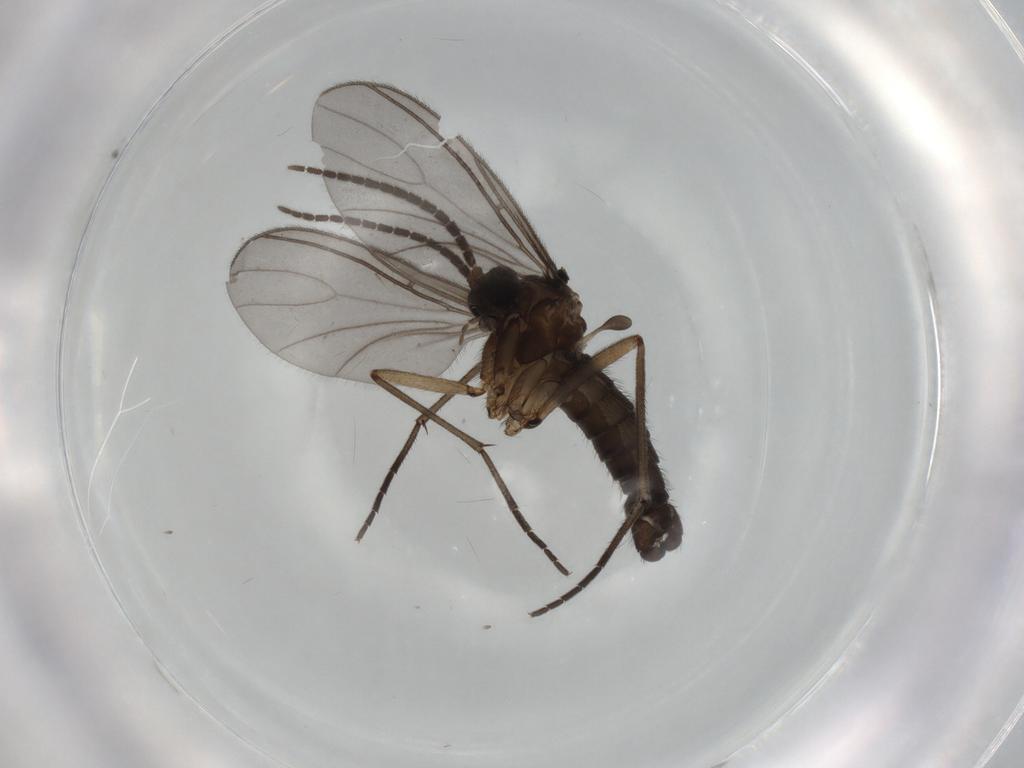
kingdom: Animalia
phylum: Arthropoda
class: Insecta
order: Diptera
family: Sciaridae
